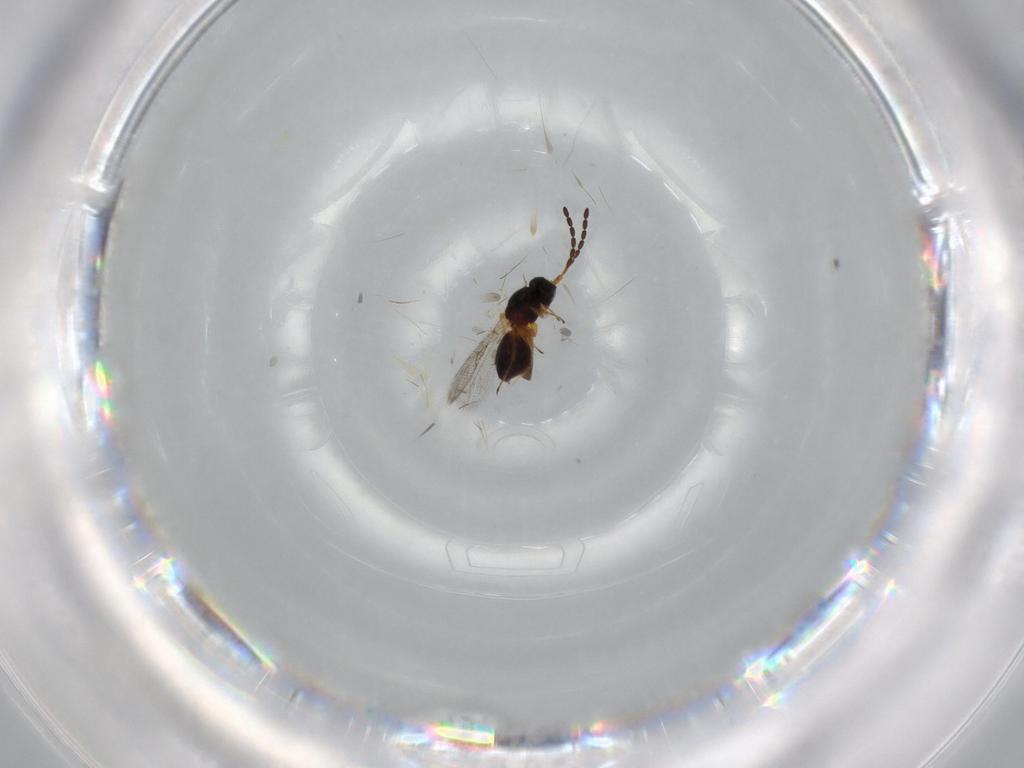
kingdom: Animalia
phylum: Arthropoda
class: Insecta
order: Hymenoptera
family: Figitidae
